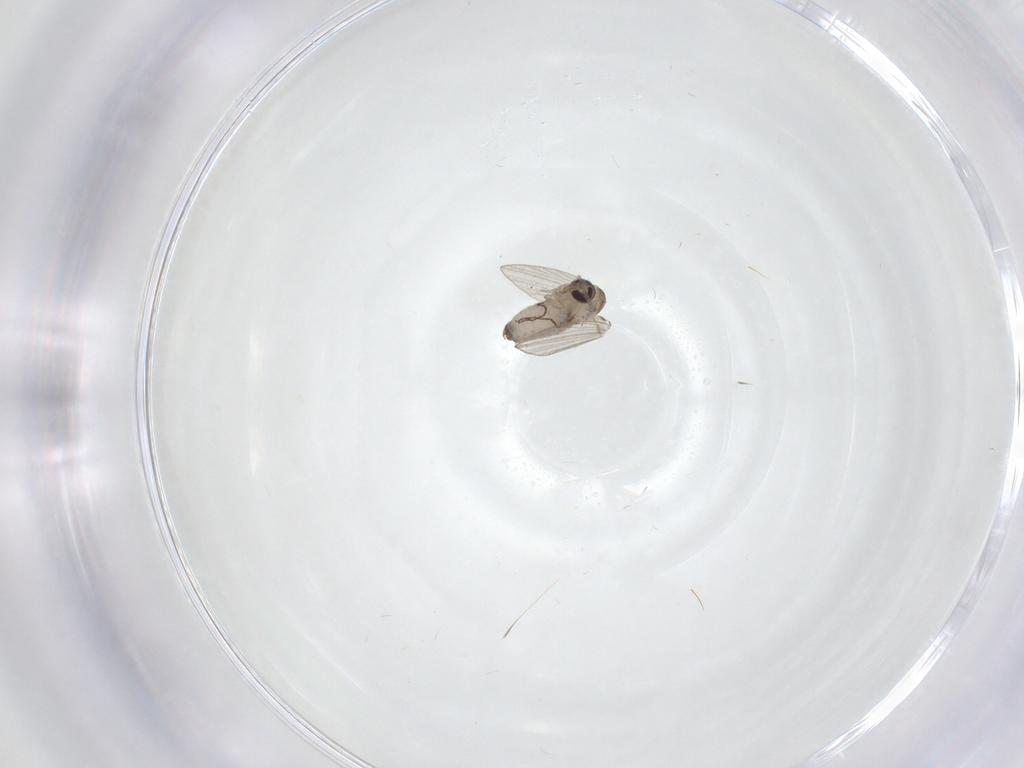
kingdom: Animalia
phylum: Arthropoda
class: Insecta
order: Diptera
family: Psychodidae
